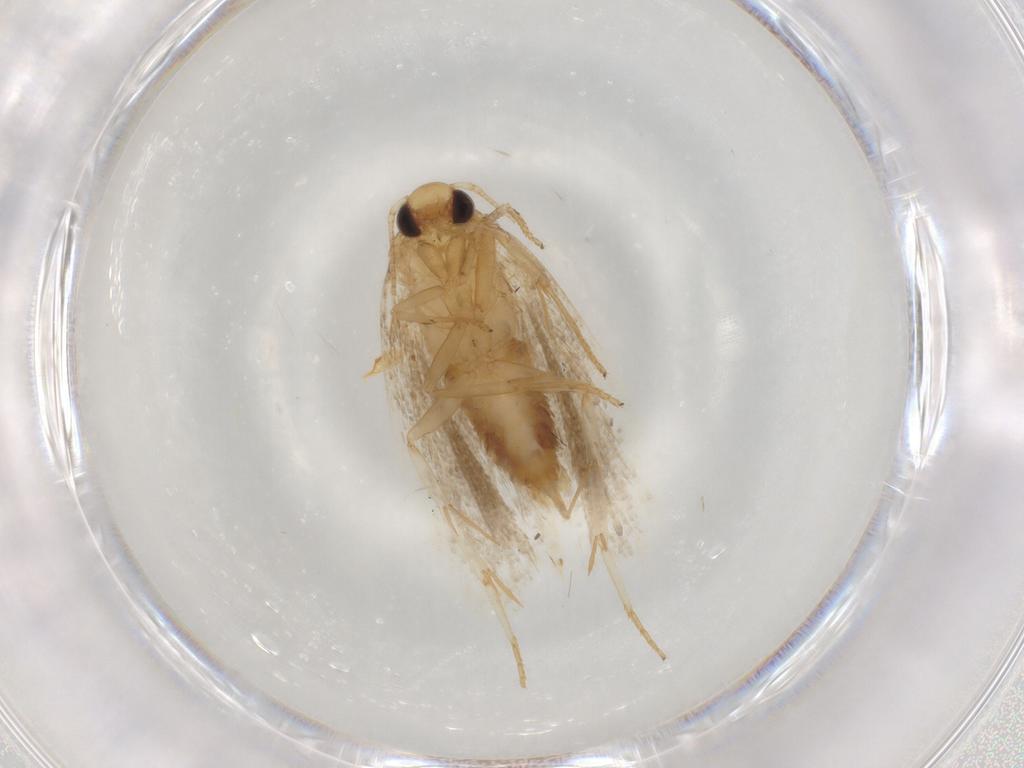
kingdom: Animalia
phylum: Arthropoda
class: Insecta
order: Lepidoptera
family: Depressariidae
